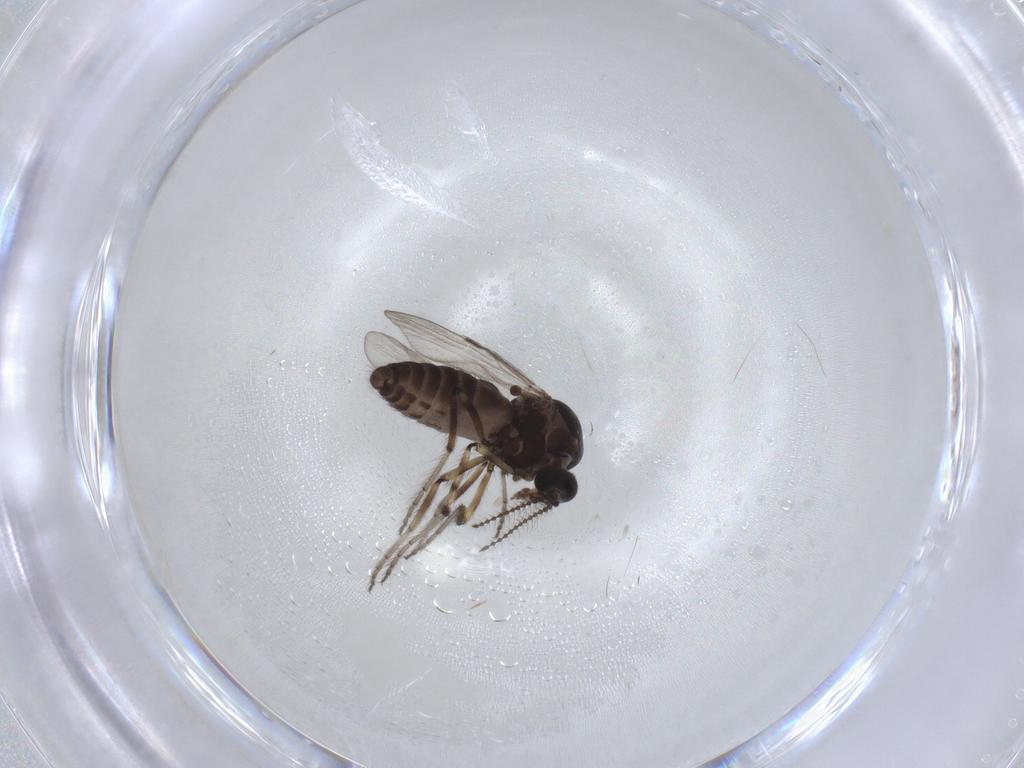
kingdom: Animalia
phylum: Arthropoda
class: Insecta
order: Diptera
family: Ceratopogonidae
